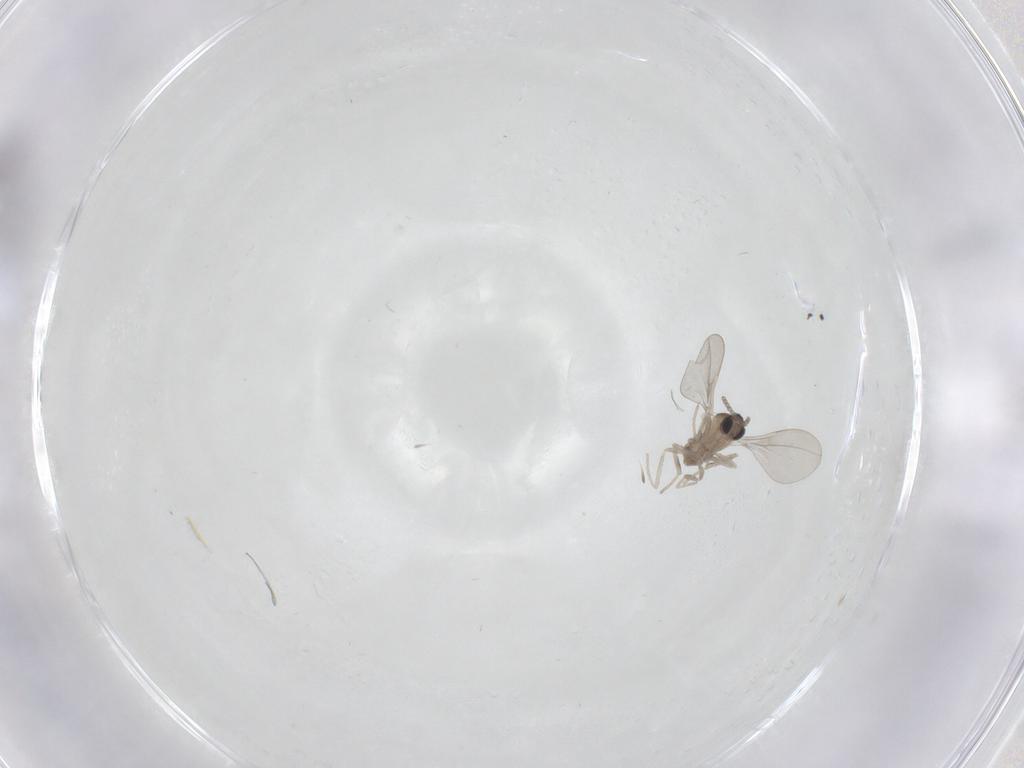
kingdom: Animalia
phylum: Arthropoda
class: Insecta
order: Diptera
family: Cecidomyiidae
